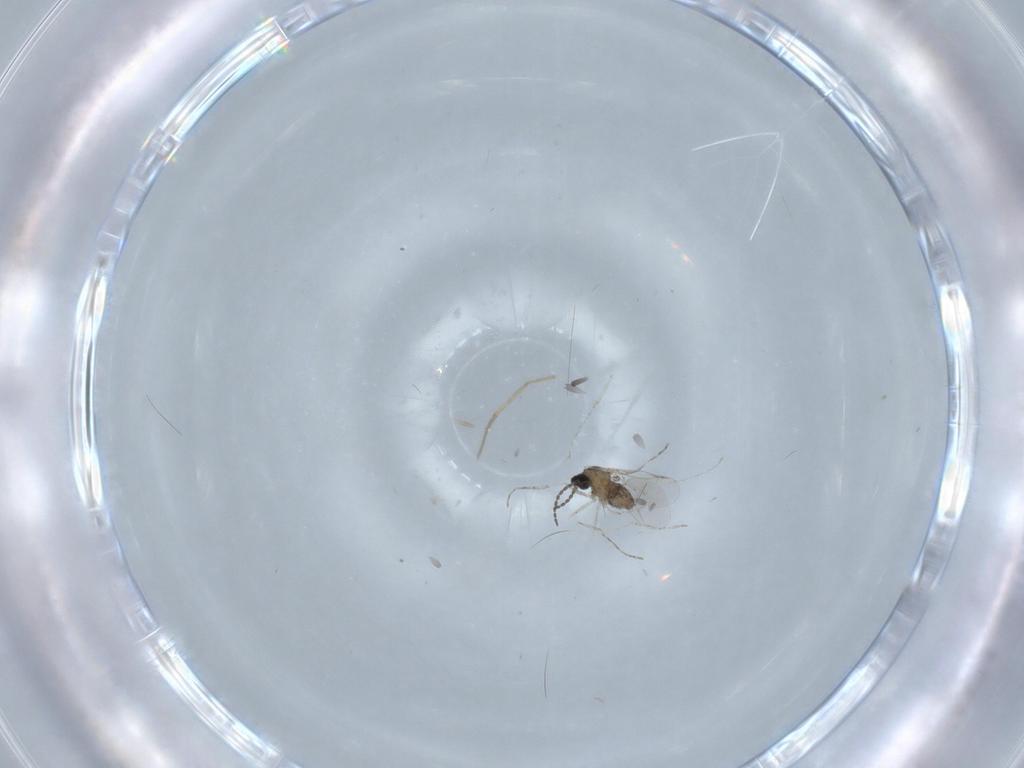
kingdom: Animalia
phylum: Arthropoda
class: Insecta
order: Diptera
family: Cecidomyiidae
